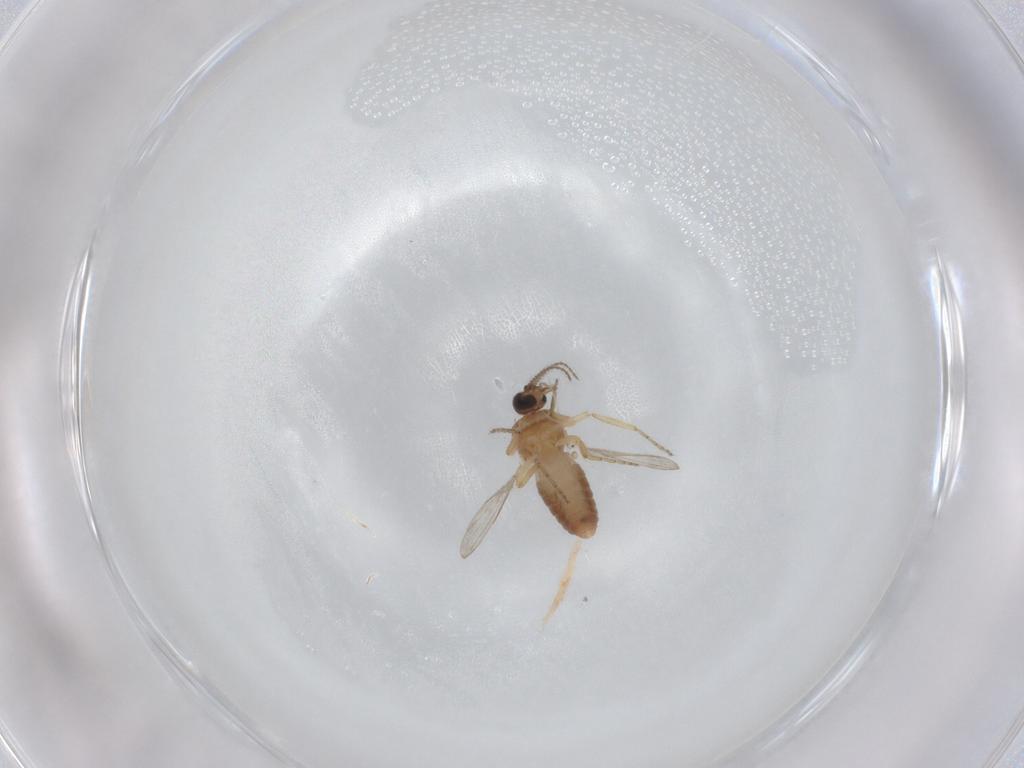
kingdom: Animalia
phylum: Arthropoda
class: Insecta
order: Diptera
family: Ceratopogonidae
